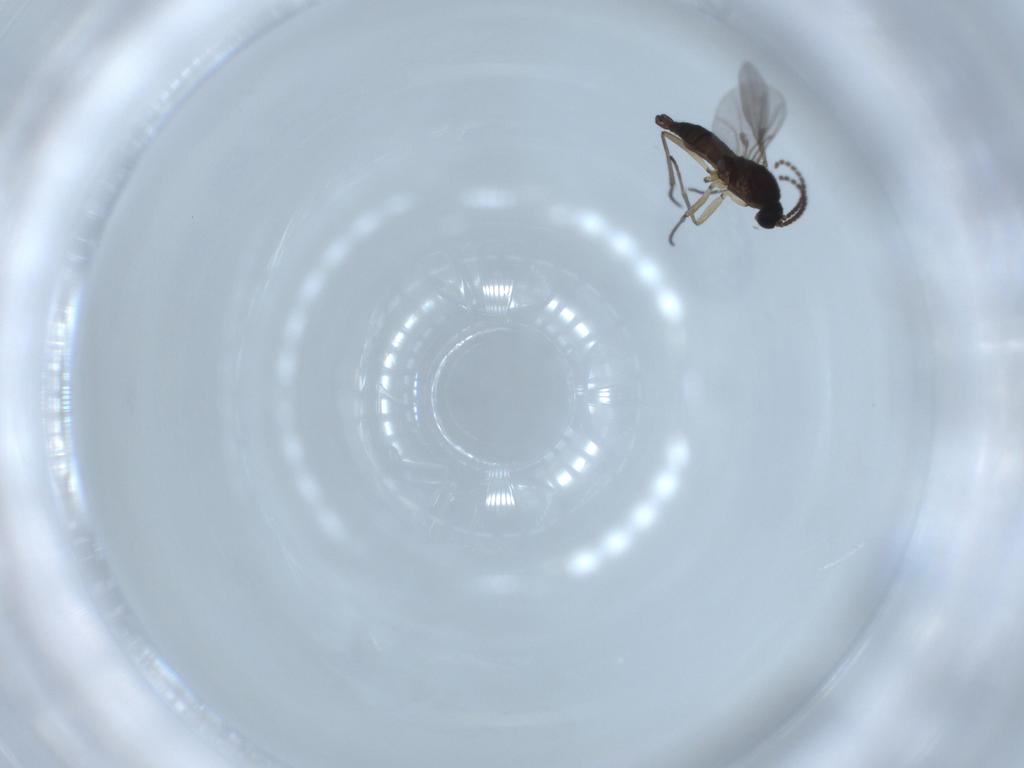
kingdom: Animalia
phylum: Arthropoda
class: Insecta
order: Diptera
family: Sciaridae
